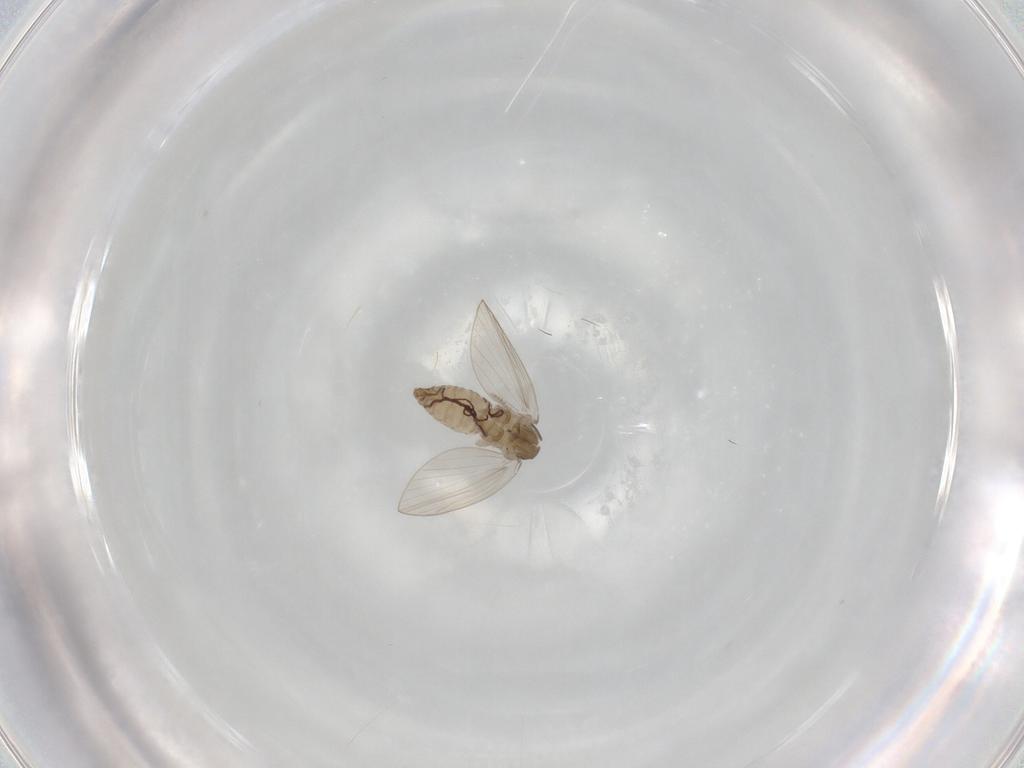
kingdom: Animalia
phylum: Arthropoda
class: Insecta
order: Diptera
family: Psychodidae
